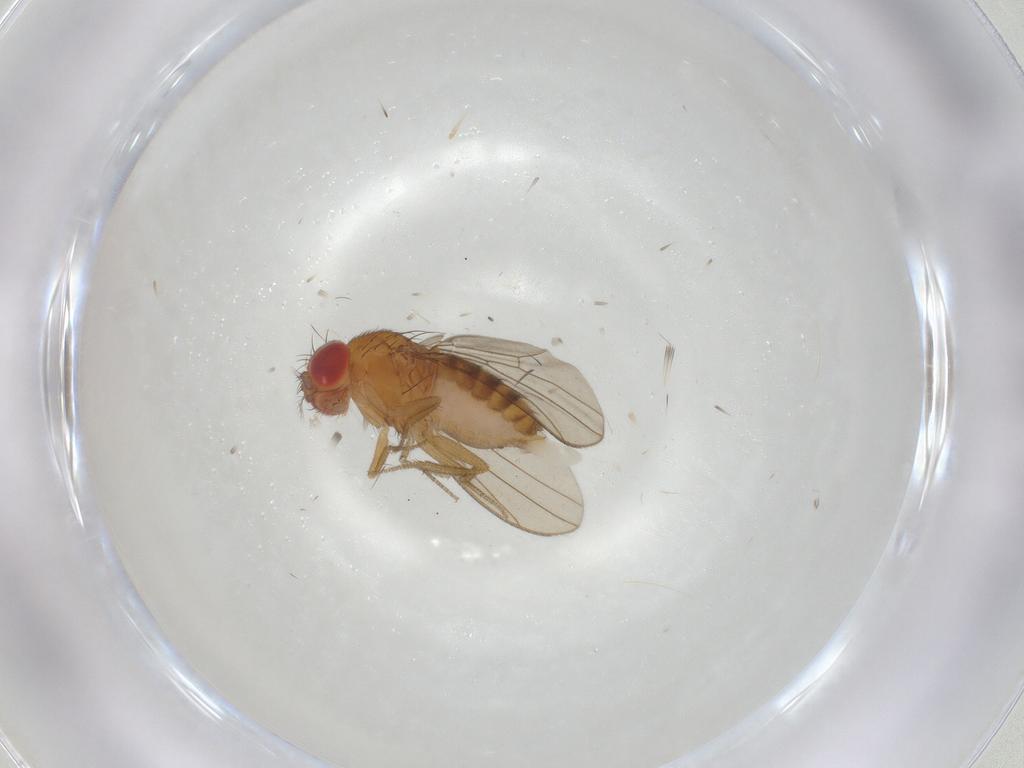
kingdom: Animalia
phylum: Arthropoda
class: Insecta
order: Diptera
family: Drosophilidae
